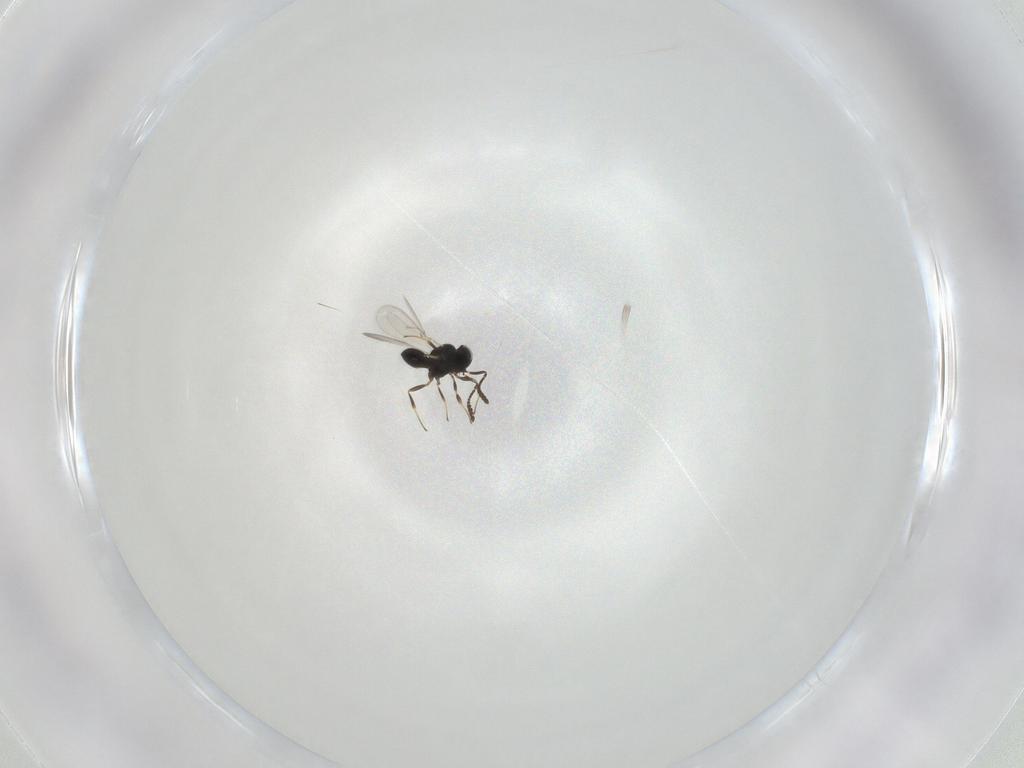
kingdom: Animalia
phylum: Arthropoda
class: Insecta
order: Hymenoptera
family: Scelionidae
